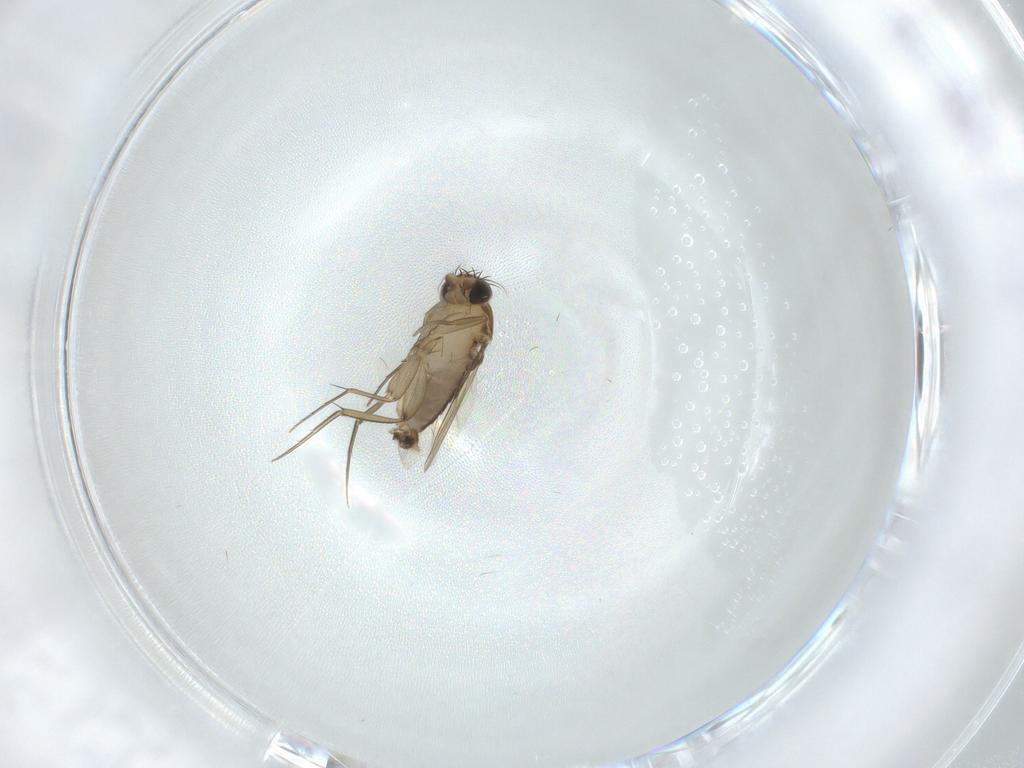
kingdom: Animalia
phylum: Arthropoda
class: Insecta
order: Diptera
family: Phoridae
